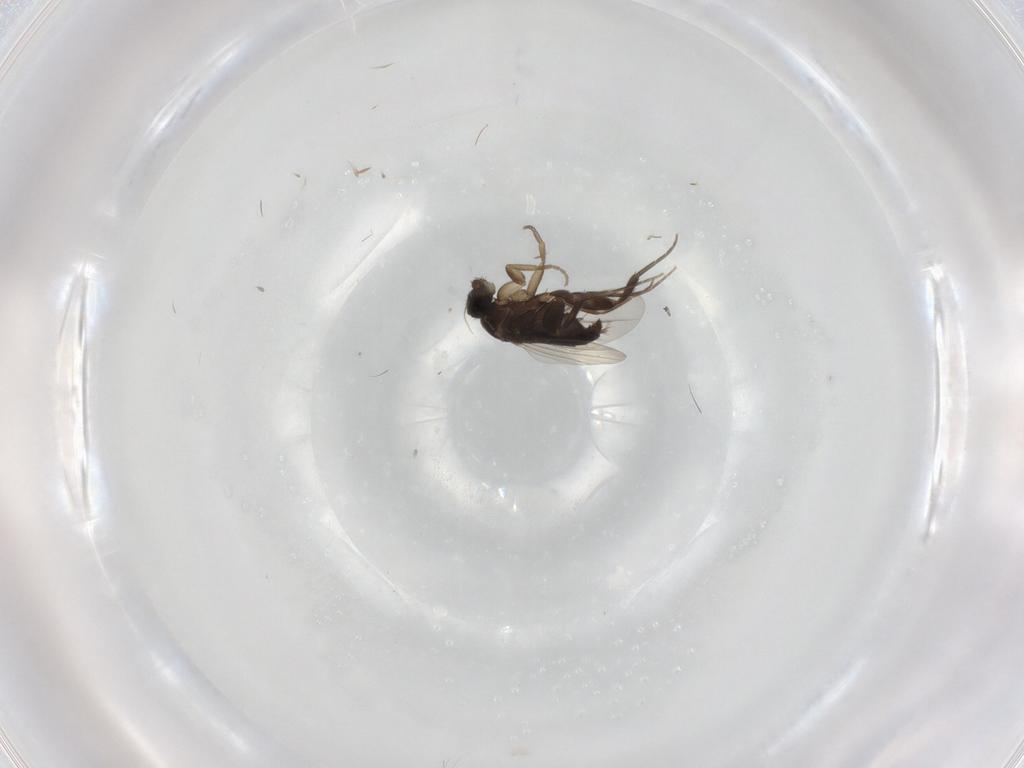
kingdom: Animalia
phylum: Arthropoda
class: Insecta
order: Diptera
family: Phoridae
